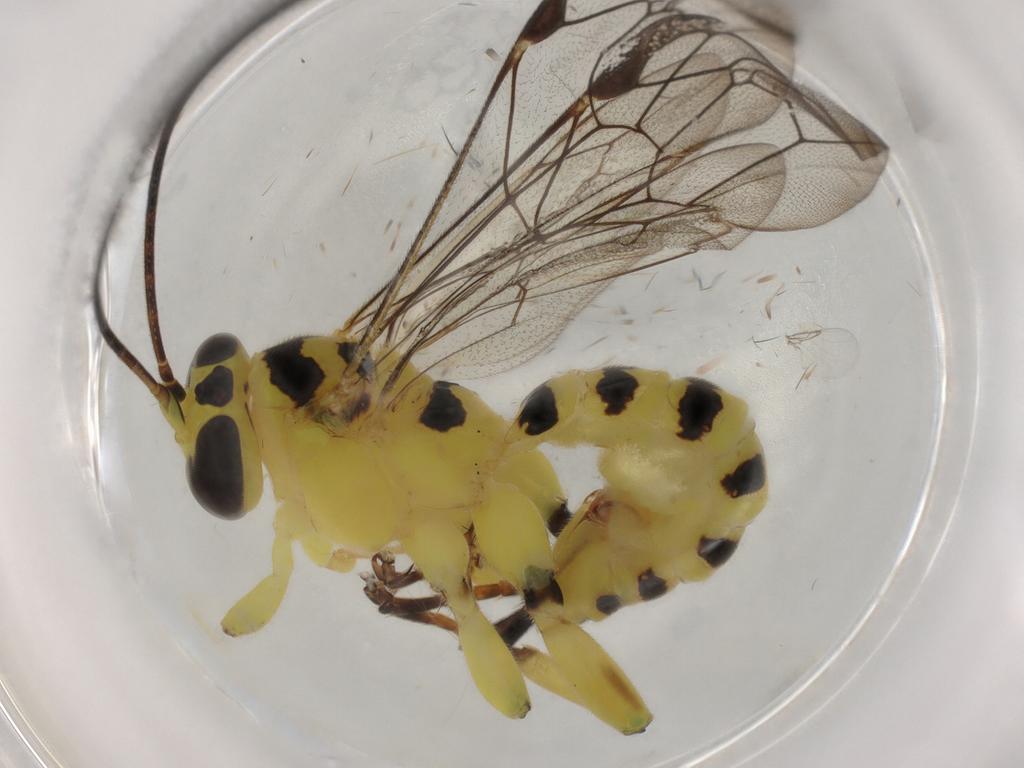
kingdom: Animalia
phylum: Arthropoda
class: Insecta
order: Hymenoptera
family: Ichneumonidae
